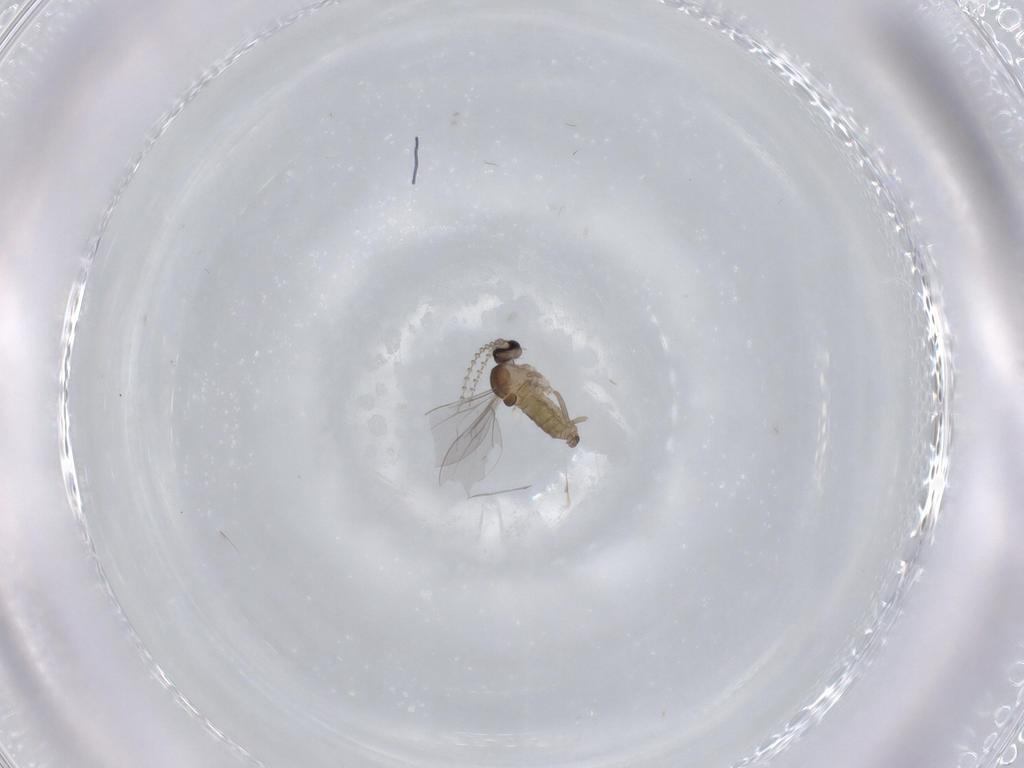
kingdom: Animalia
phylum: Arthropoda
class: Insecta
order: Diptera
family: Cecidomyiidae
